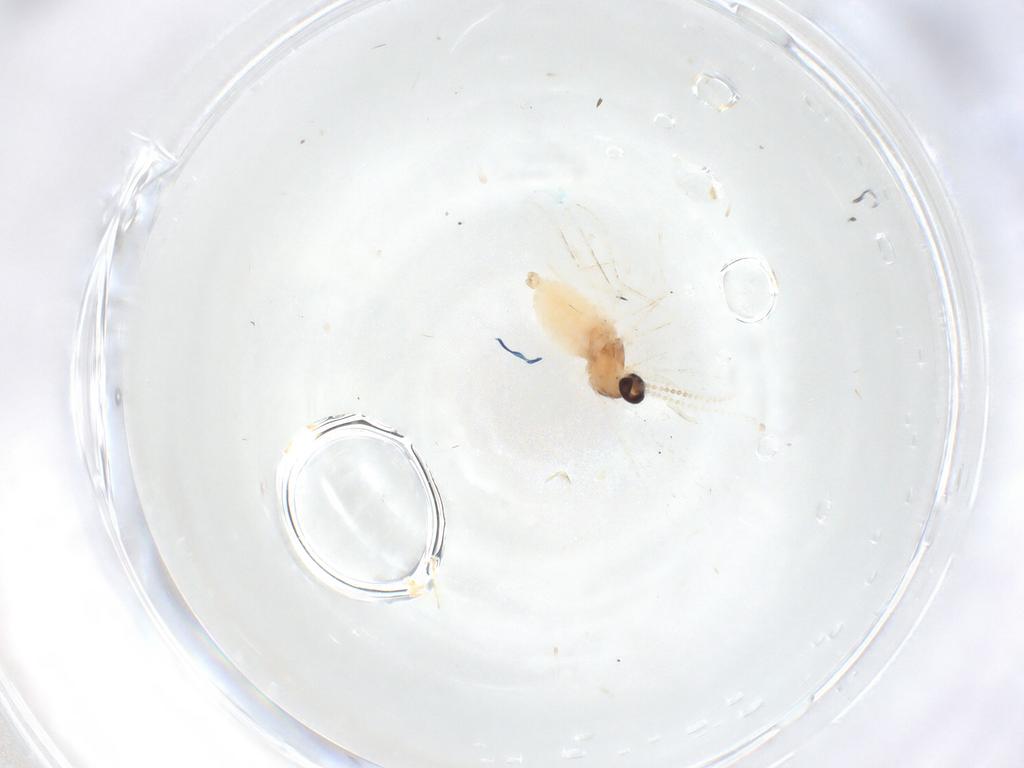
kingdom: Animalia
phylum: Arthropoda
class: Insecta
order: Diptera
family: Cecidomyiidae
